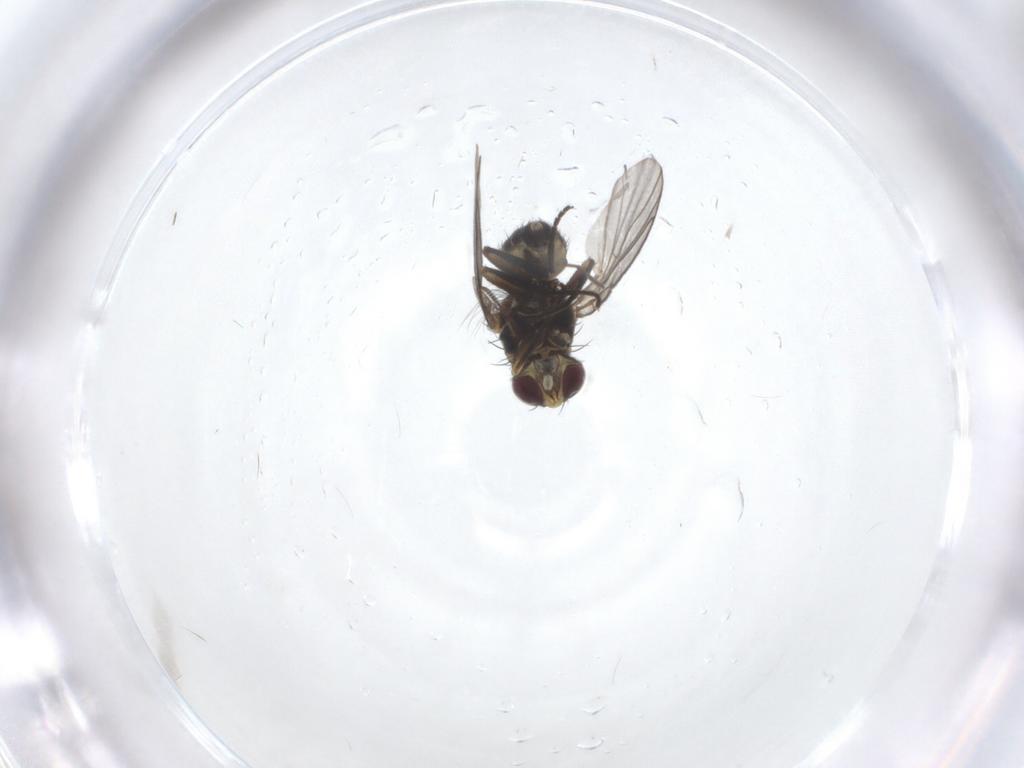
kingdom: Animalia
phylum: Arthropoda
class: Insecta
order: Diptera
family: Agromyzidae
